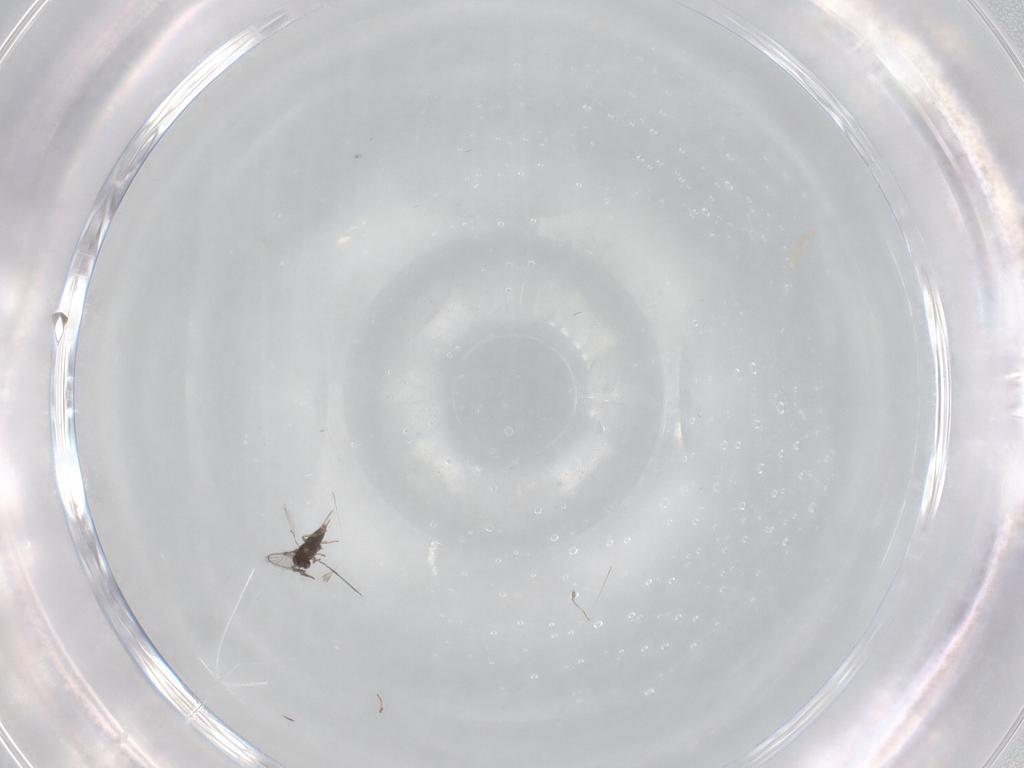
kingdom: Animalia
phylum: Arthropoda
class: Insecta
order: Hymenoptera
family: Trichogrammatidae
